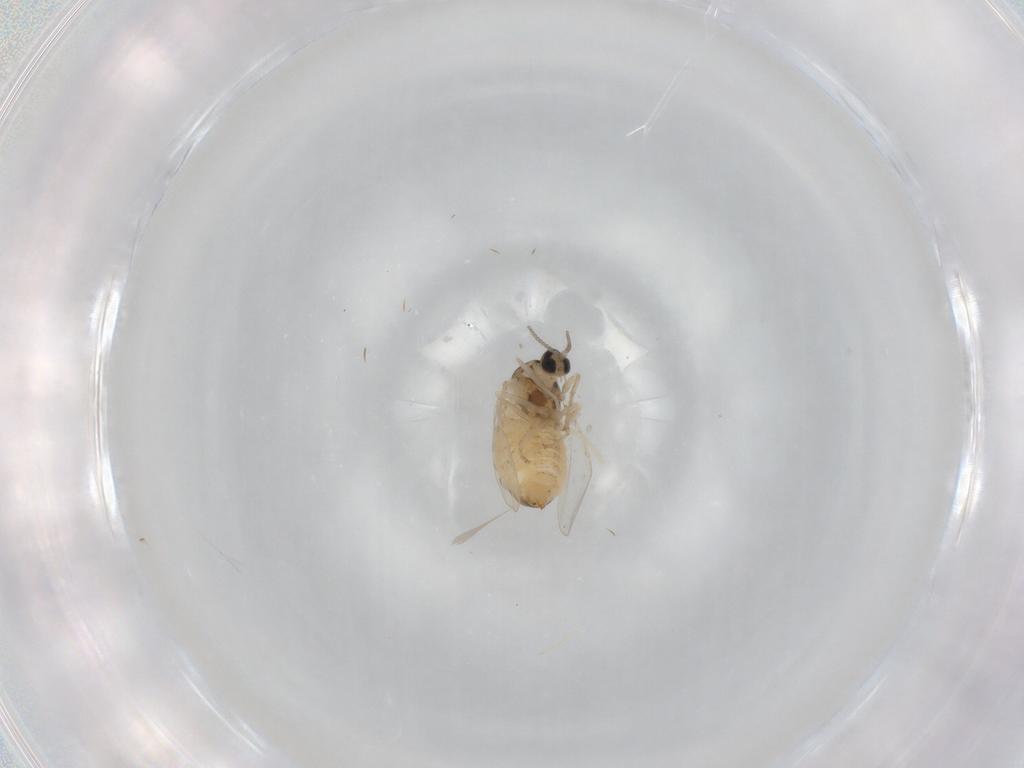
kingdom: Animalia
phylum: Arthropoda
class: Insecta
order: Diptera
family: Cecidomyiidae
